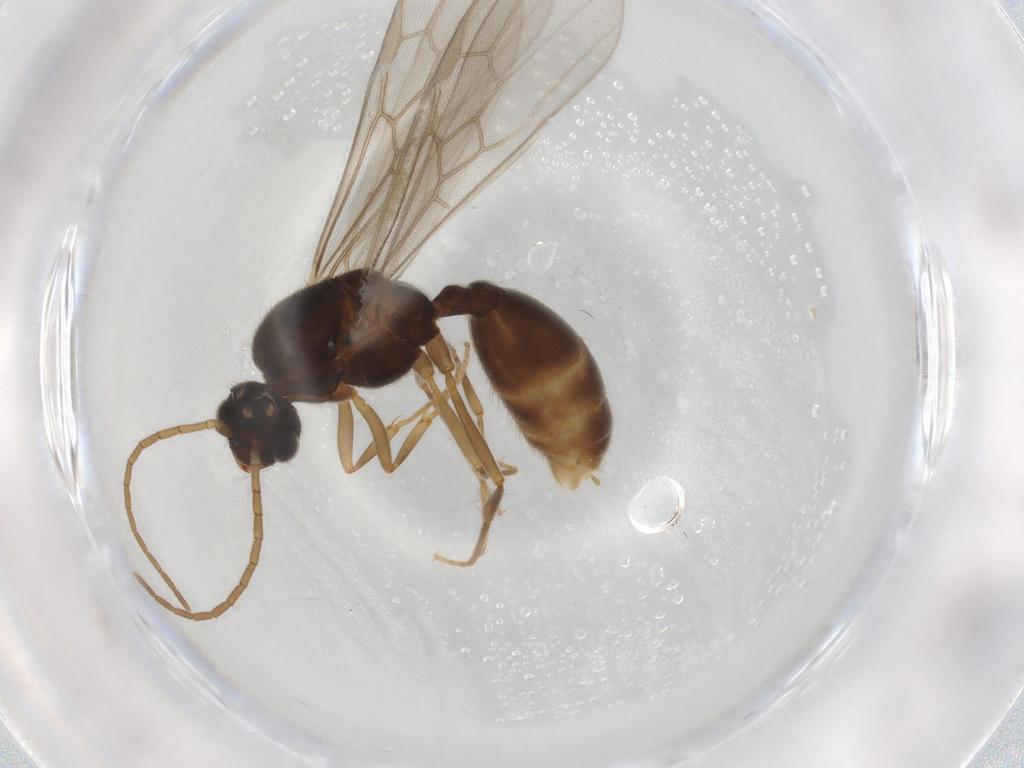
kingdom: Animalia
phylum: Arthropoda
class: Insecta
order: Hymenoptera
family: Formicidae
